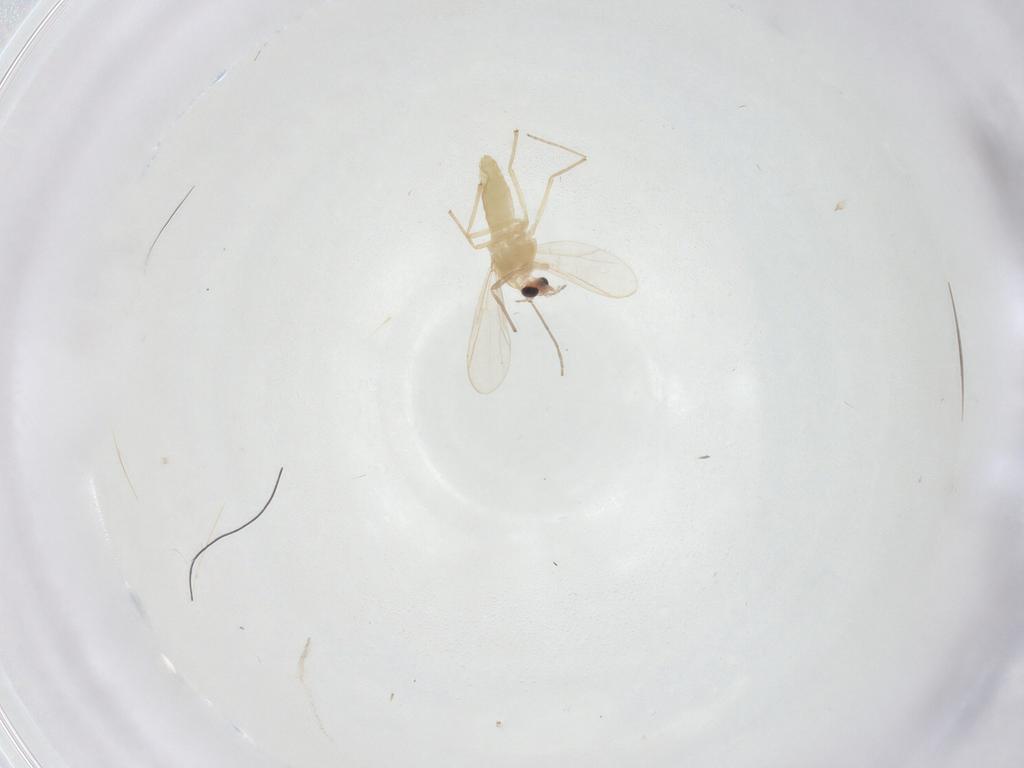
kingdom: Animalia
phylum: Arthropoda
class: Insecta
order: Diptera
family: Chironomidae
